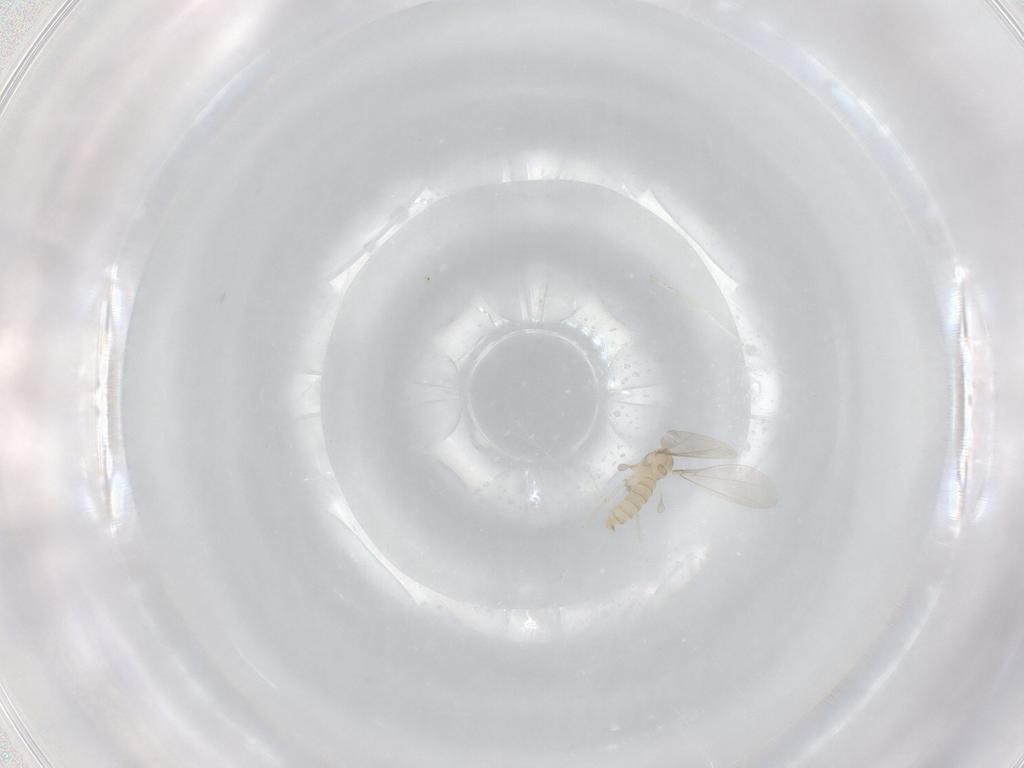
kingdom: Animalia
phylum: Arthropoda
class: Insecta
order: Diptera
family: Cecidomyiidae
